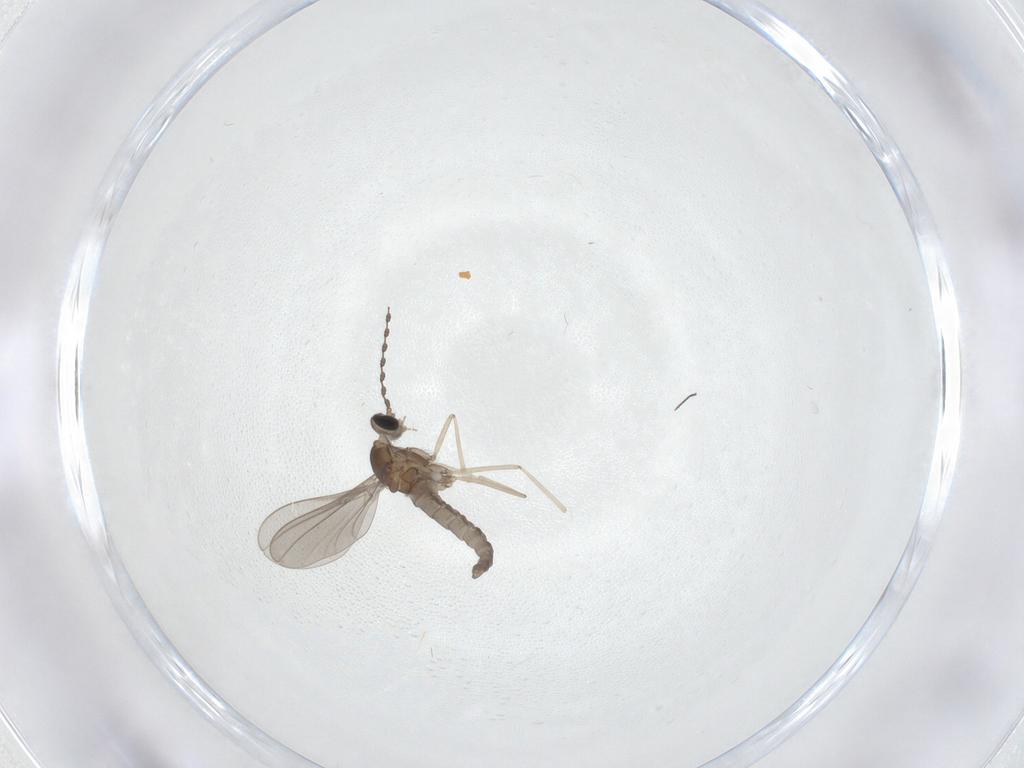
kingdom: Animalia
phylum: Arthropoda
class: Insecta
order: Diptera
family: Cecidomyiidae
